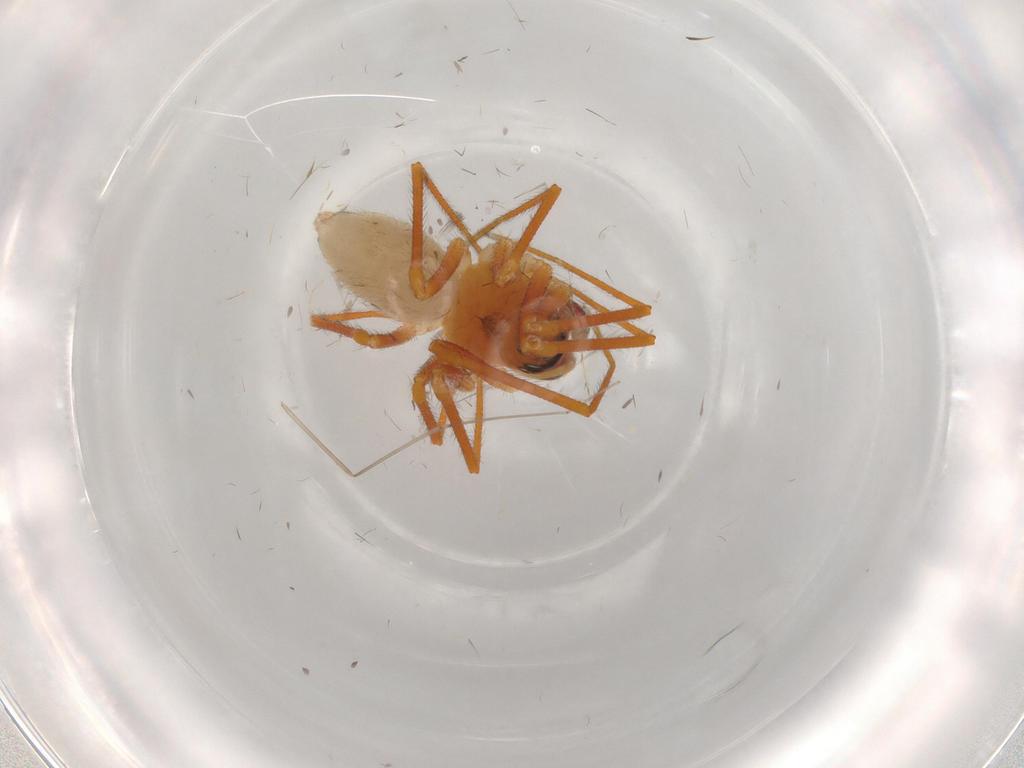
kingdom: Animalia
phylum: Arthropoda
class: Arachnida
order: Araneae
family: Linyphiidae
